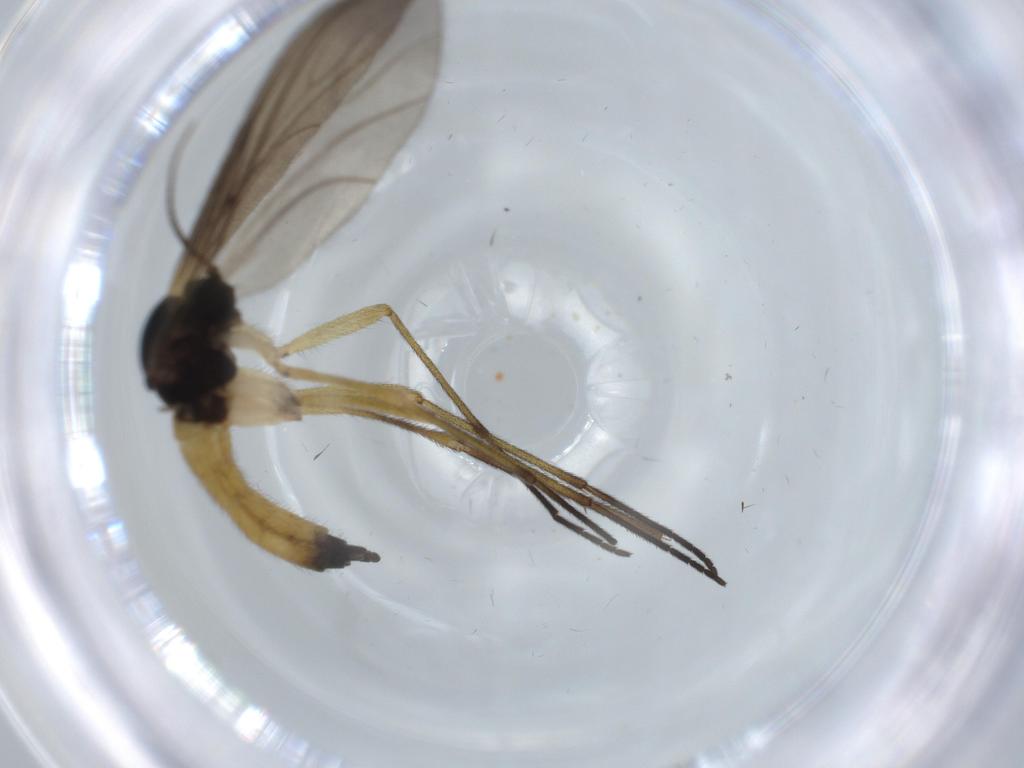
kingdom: Animalia
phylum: Arthropoda
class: Insecta
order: Diptera
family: Sciaridae
